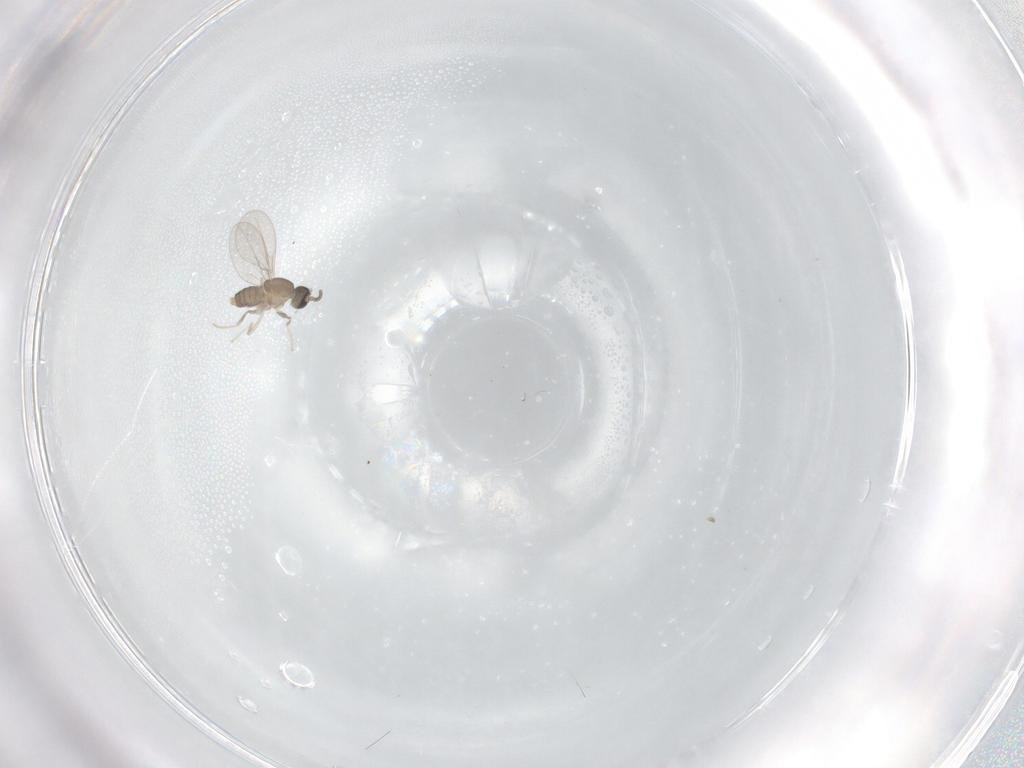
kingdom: Animalia
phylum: Arthropoda
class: Insecta
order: Diptera
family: Cecidomyiidae
